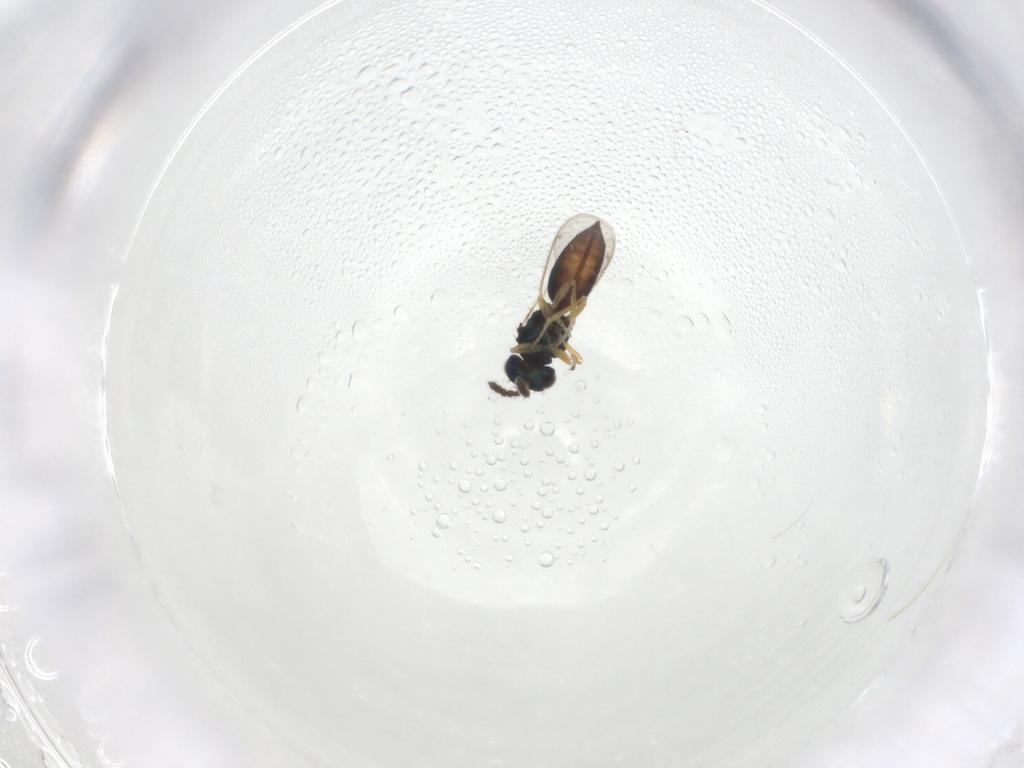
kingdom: Animalia
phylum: Arthropoda
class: Insecta
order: Hymenoptera
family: Eulophidae
